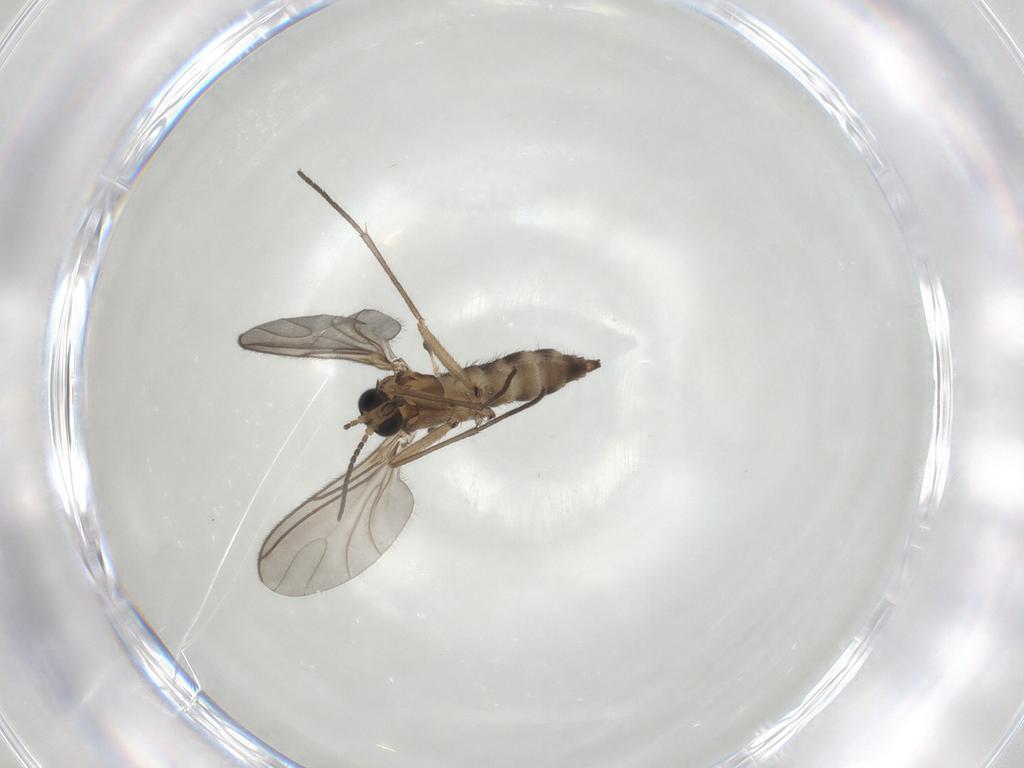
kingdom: Animalia
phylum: Arthropoda
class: Insecta
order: Diptera
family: Sciaridae
